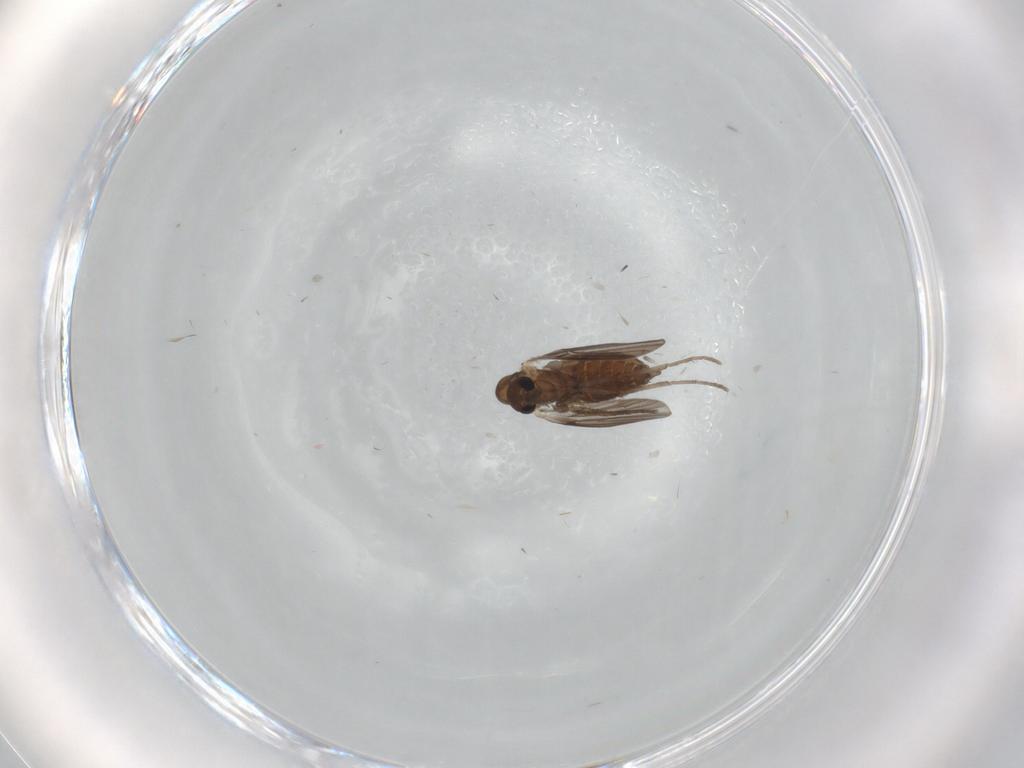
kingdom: Animalia
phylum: Arthropoda
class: Insecta
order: Diptera
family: Sciaridae
